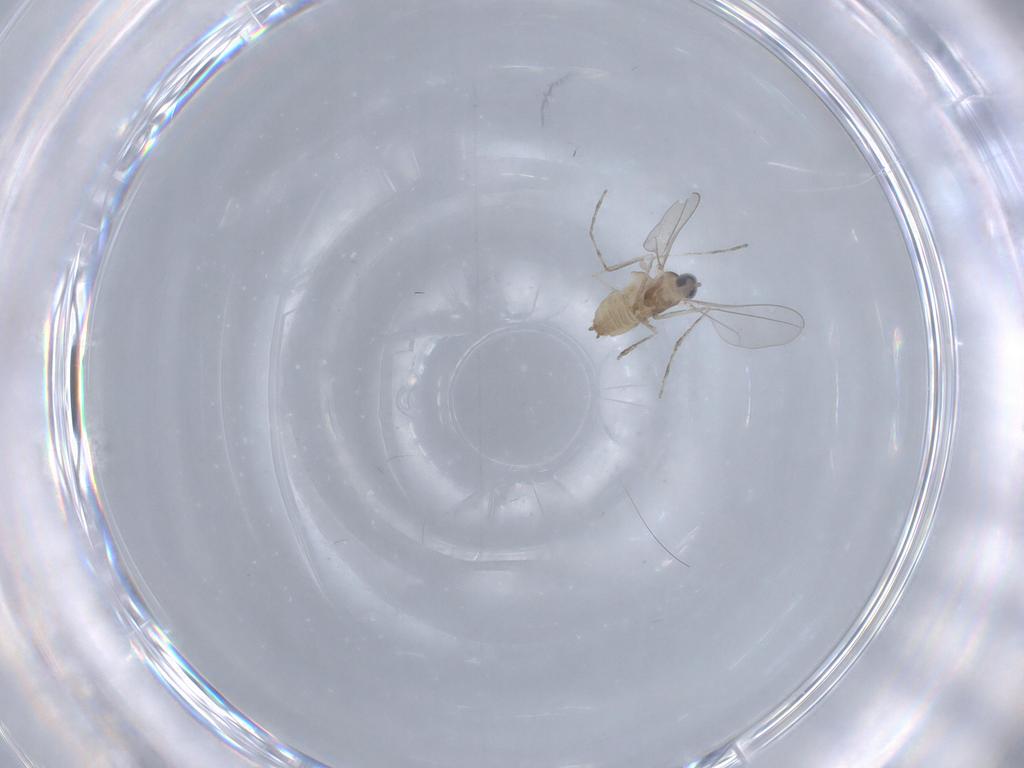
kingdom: Animalia
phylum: Arthropoda
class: Insecta
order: Diptera
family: Cecidomyiidae
